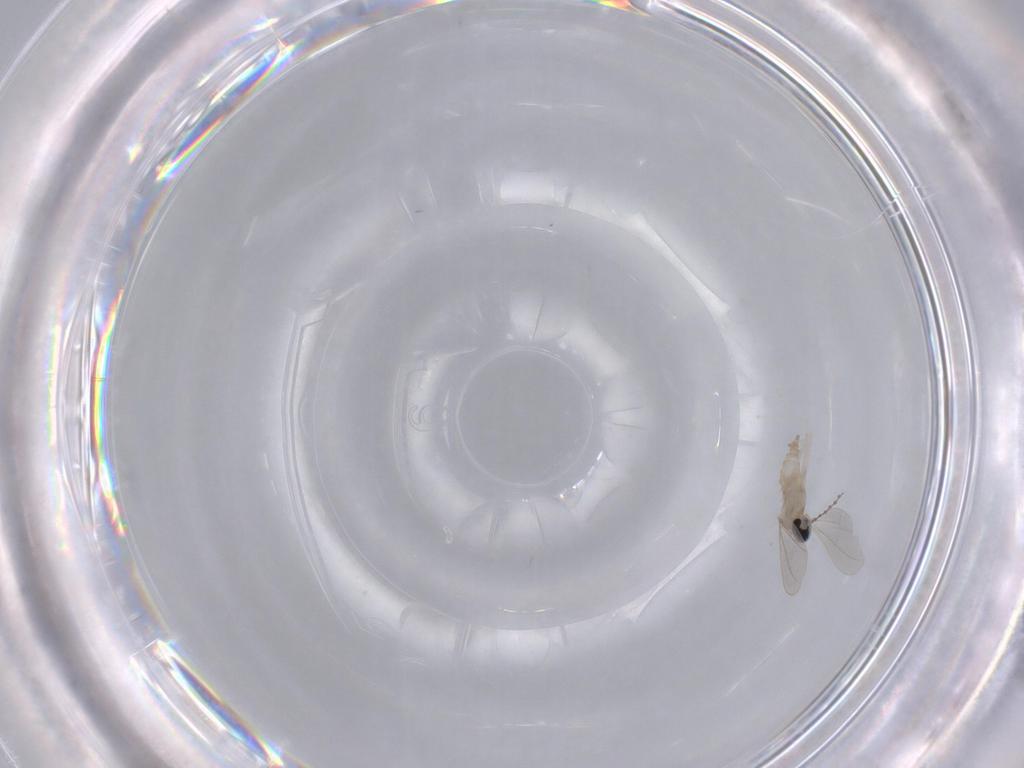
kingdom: Animalia
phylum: Arthropoda
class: Insecta
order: Diptera
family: Cecidomyiidae
